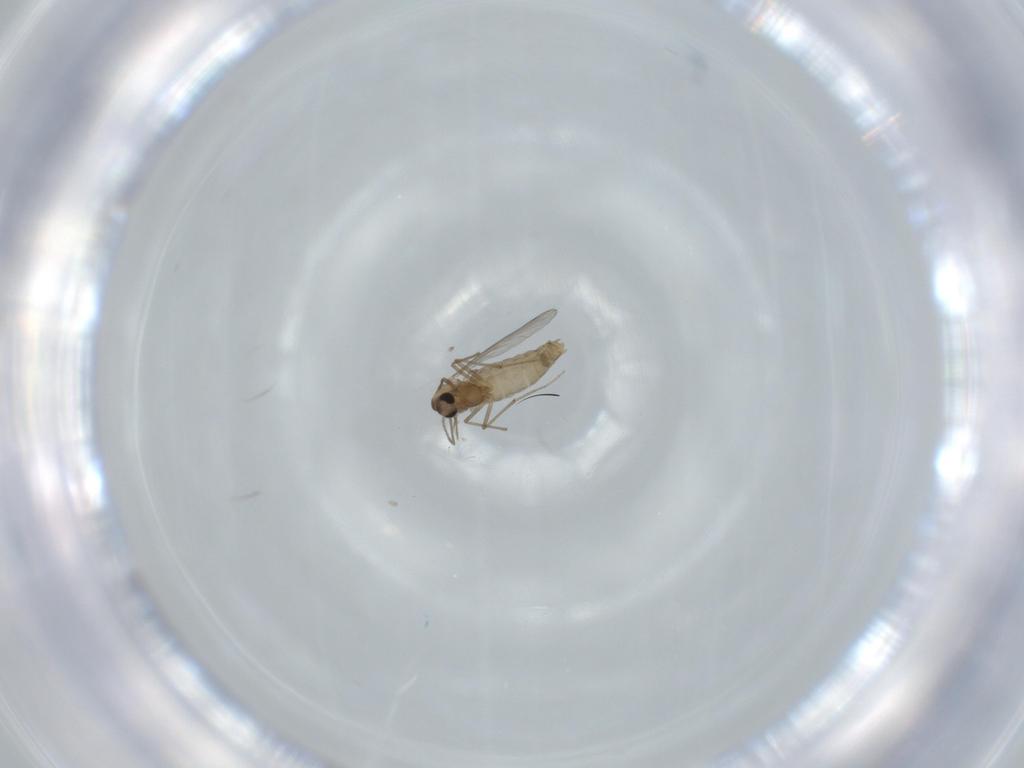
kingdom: Animalia
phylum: Arthropoda
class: Insecta
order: Diptera
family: Chironomidae
